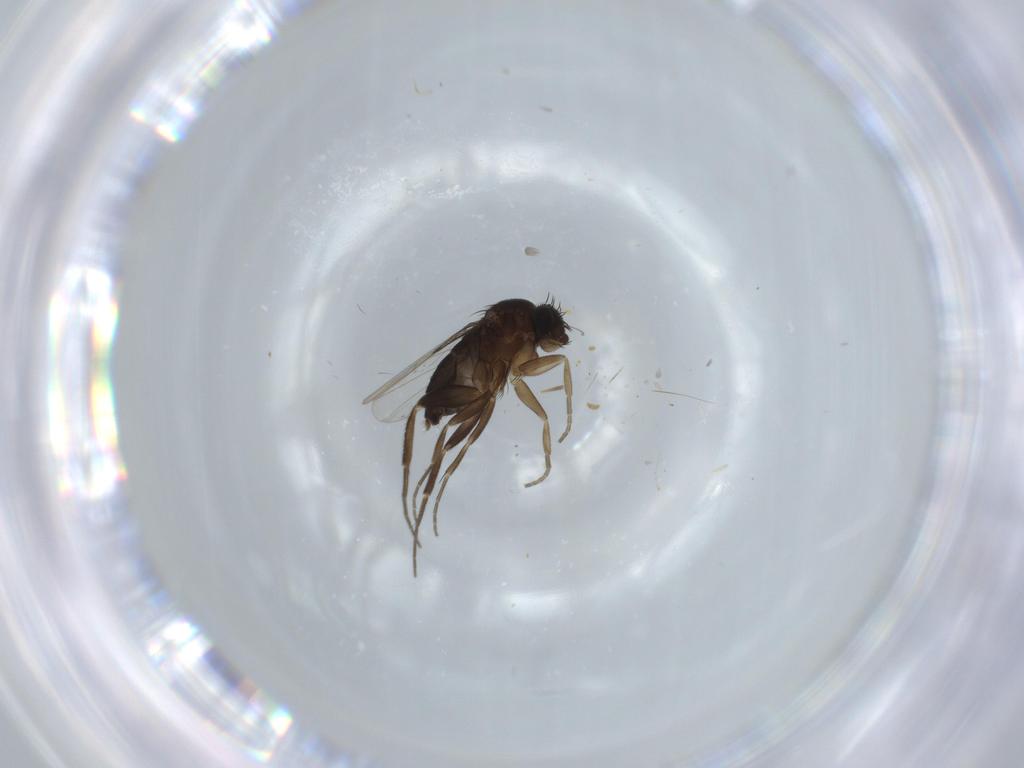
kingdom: Animalia
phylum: Arthropoda
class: Insecta
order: Diptera
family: Phoridae
